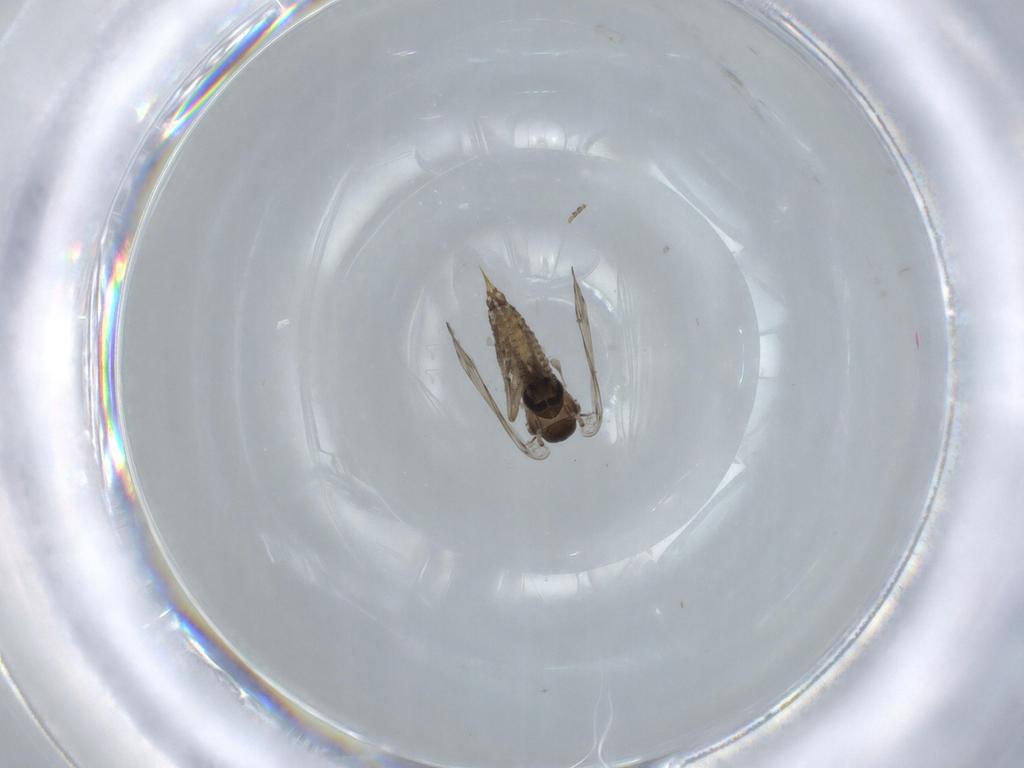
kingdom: Animalia
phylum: Arthropoda
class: Insecta
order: Diptera
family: Psychodidae
